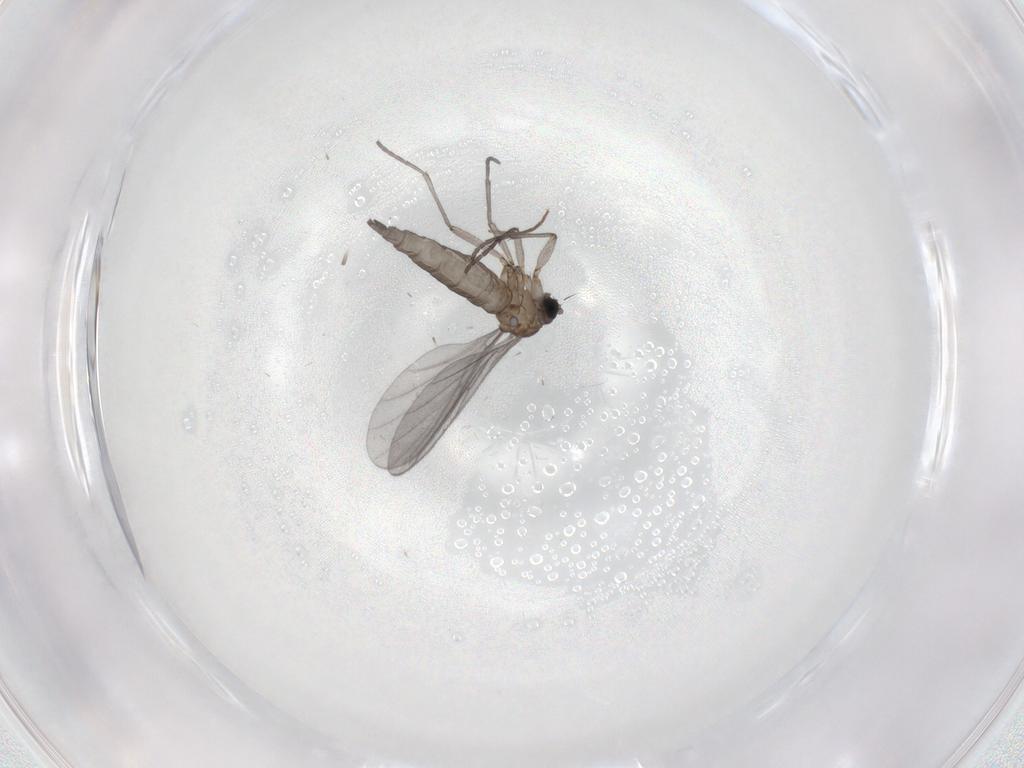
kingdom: Animalia
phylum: Arthropoda
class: Insecta
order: Diptera
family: Sciaridae
